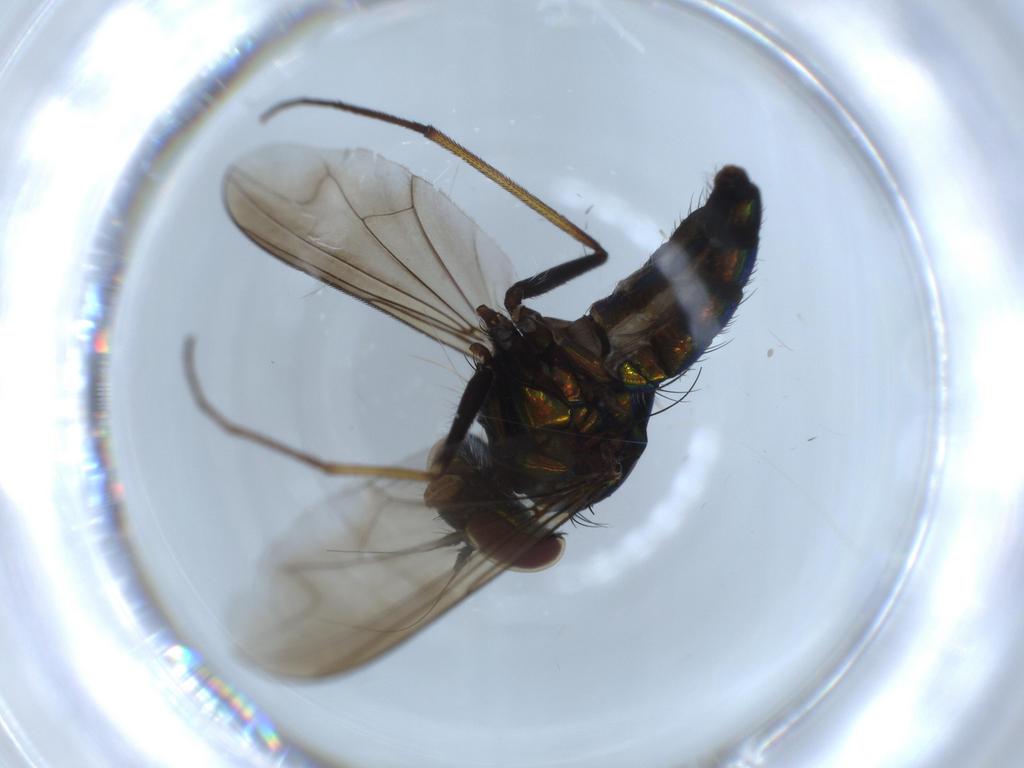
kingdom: Animalia
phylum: Arthropoda
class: Insecta
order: Diptera
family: Dolichopodidae
